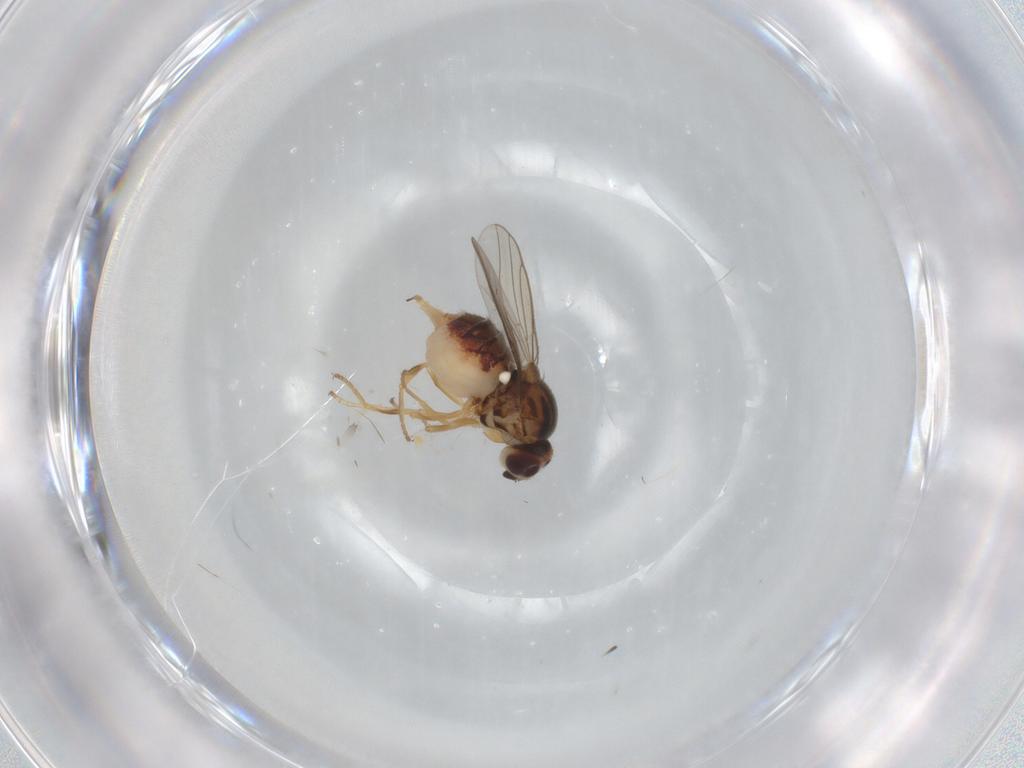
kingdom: Animalia
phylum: Arthropoda
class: Insecta
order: Diptera
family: Chloropidae
